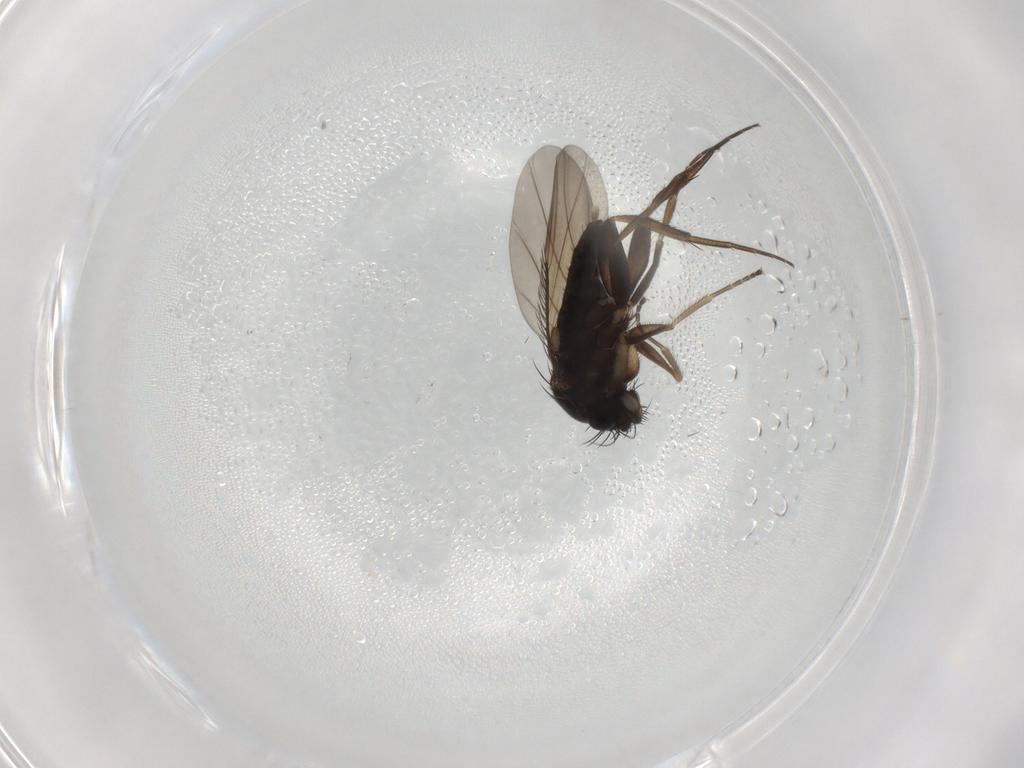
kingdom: Animalia
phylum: Arthropoda
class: Insecta
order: Diptera
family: Phoridae
